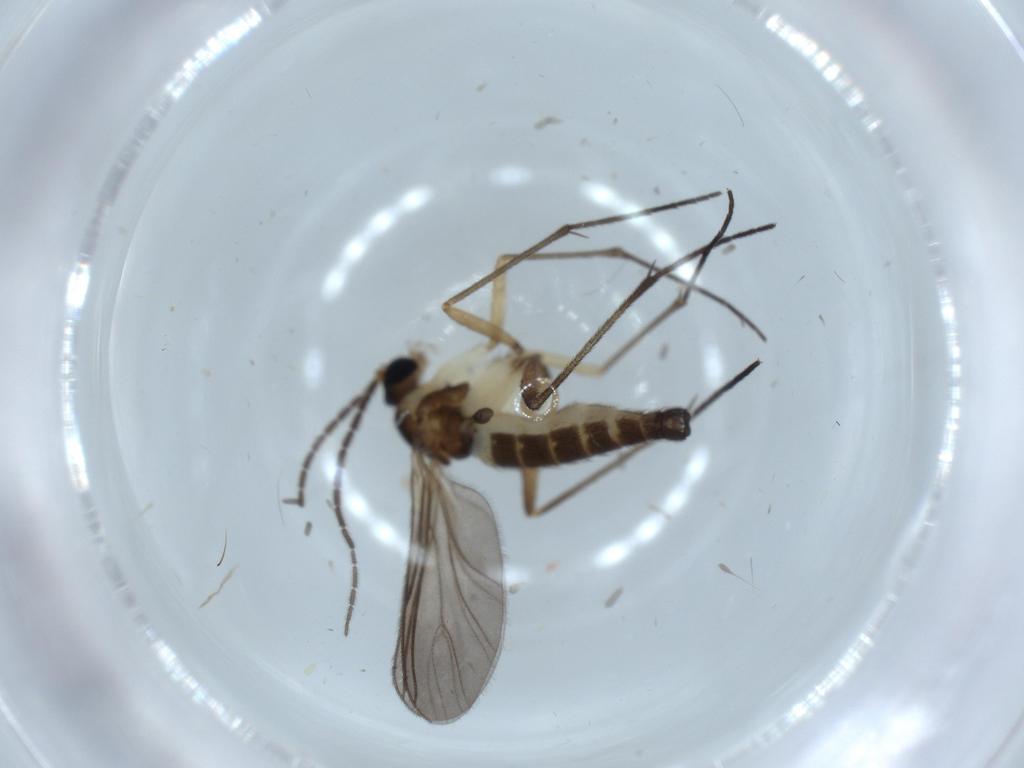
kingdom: Animalia
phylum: Arthropoda
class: Insecta
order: Diptera
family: Sciaridae
